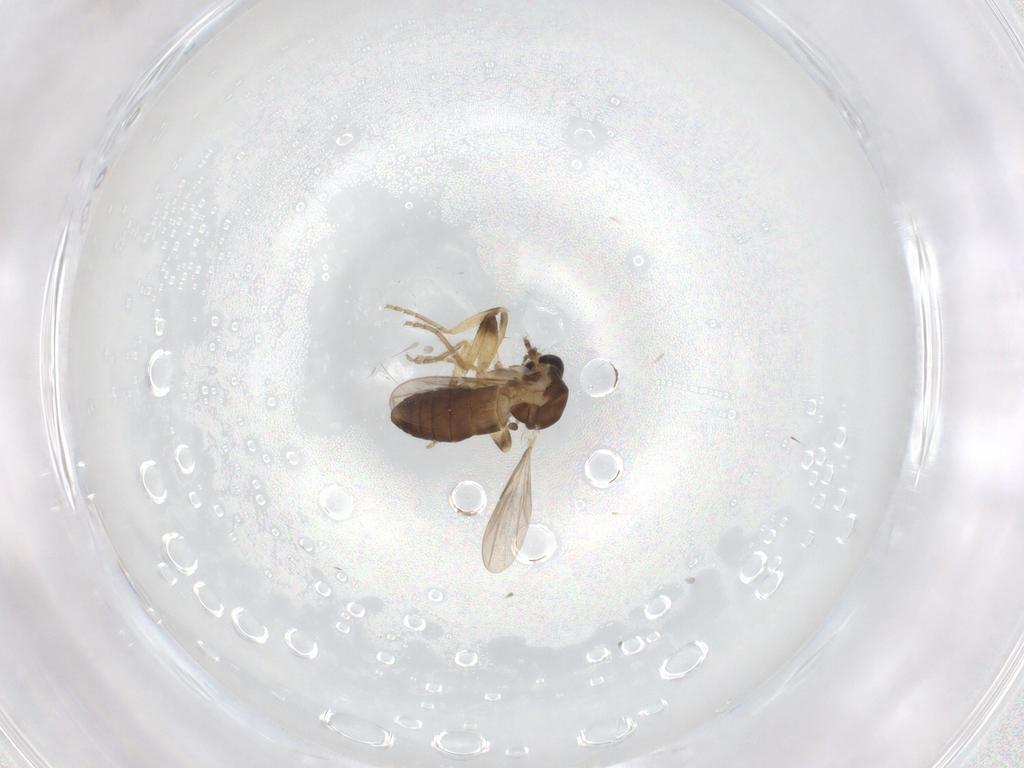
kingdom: Animalia
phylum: Arthropoda
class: Insecta
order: Diptera
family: Ceratopogonidae
